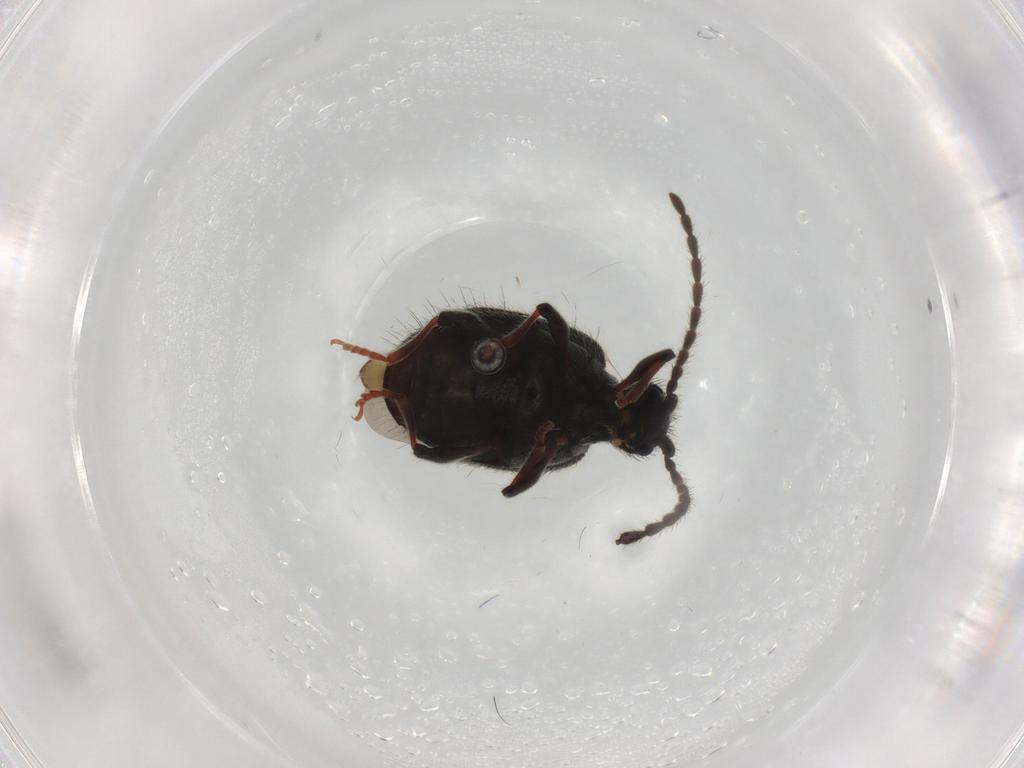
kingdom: Animalia
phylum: Arthropoda
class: Insecta
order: Coleoptera
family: Ptinidae
